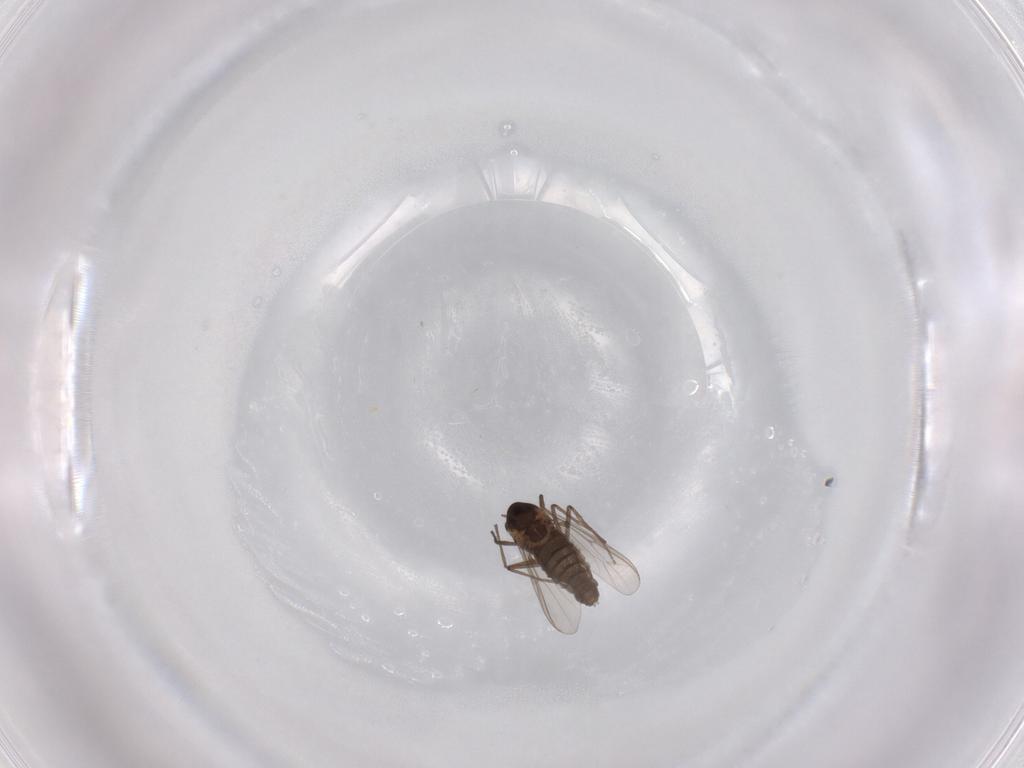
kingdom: Animalia
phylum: Arthropoda
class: Insecta
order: Diptera
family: Chironomidae
